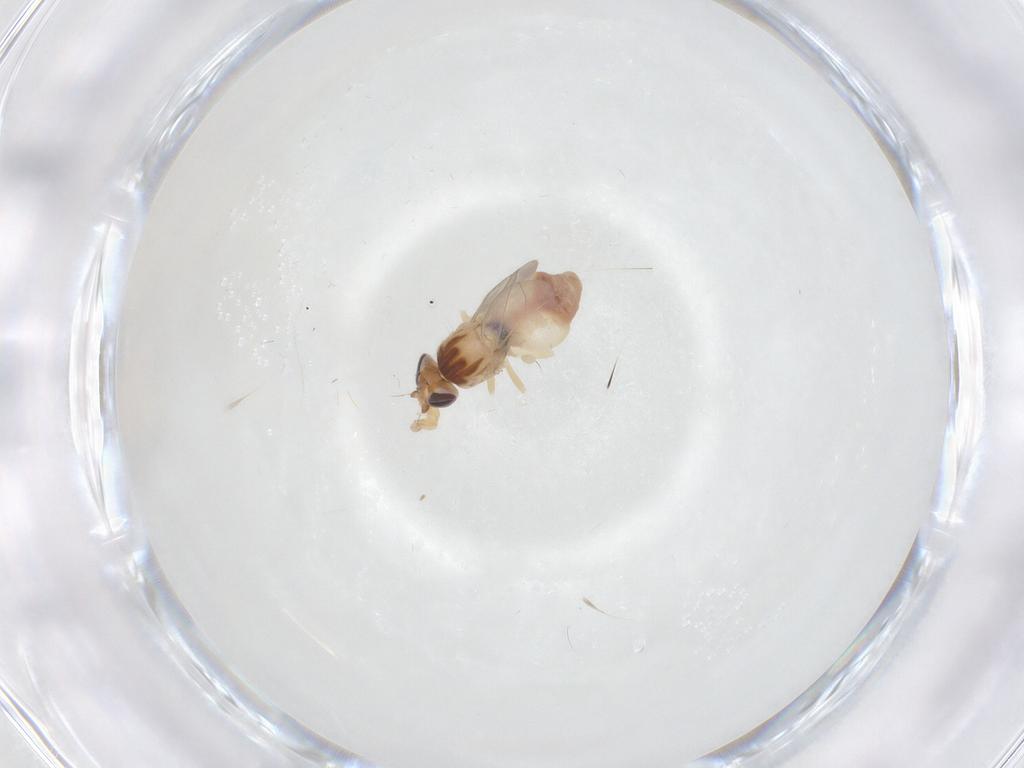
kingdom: Animalia
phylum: Arthropoda
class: Insecta
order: Diptera
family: Chloropidae
